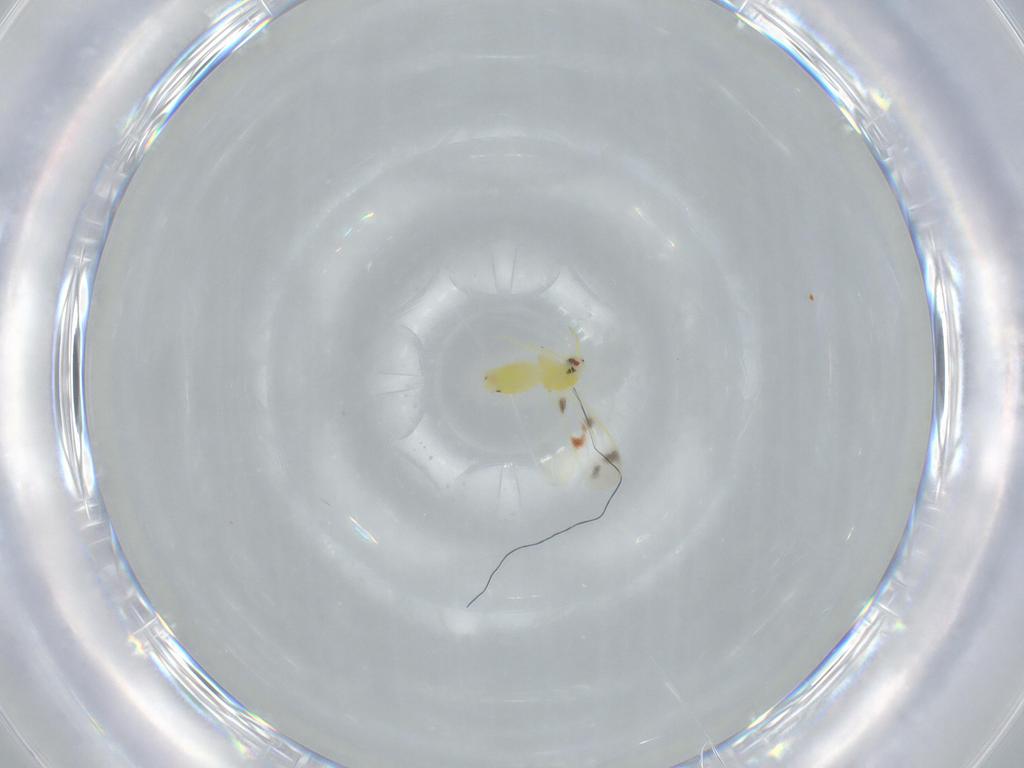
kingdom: Animalia
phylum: Arthropoda
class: Insecta
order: Hemiptera
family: Aleyrodidae
